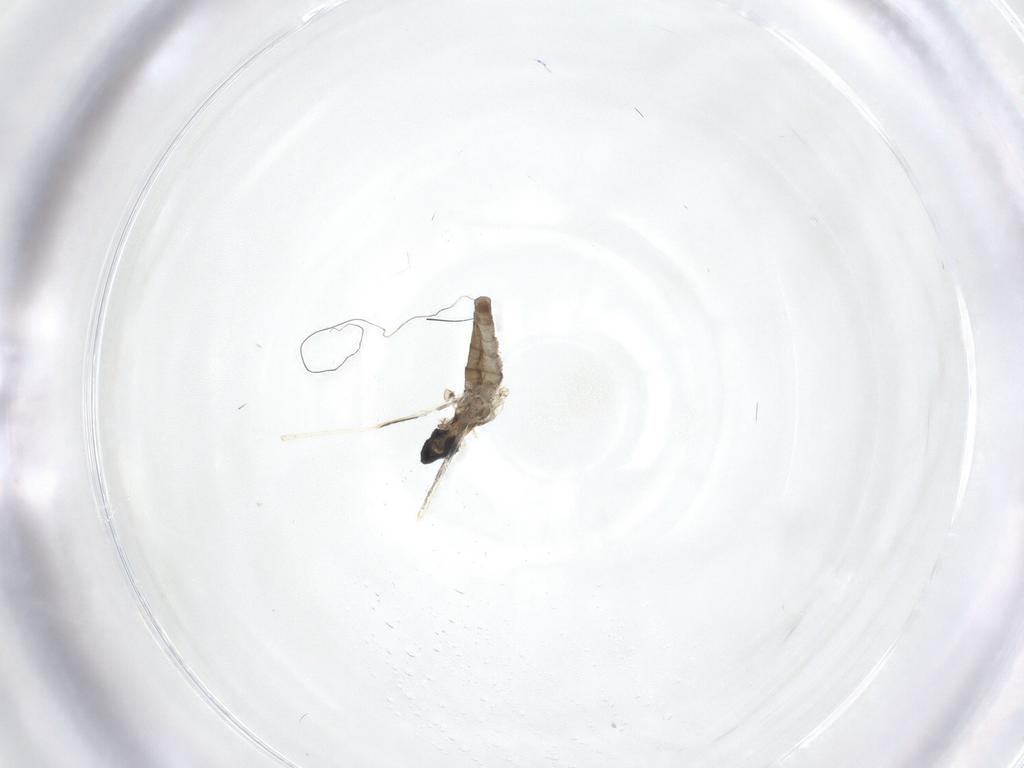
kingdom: Animalia
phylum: Arthropoda
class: Insecta
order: Diptera
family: Cecidomyiidae
